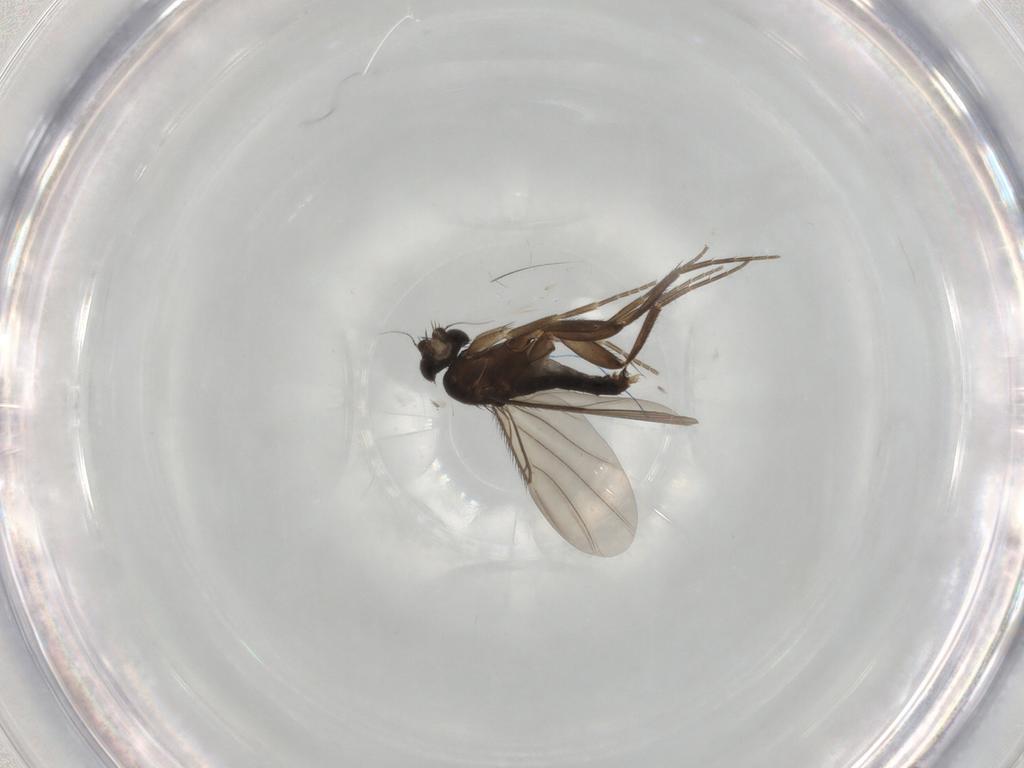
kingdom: Animalia
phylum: Arthropoda
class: Insecta
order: Diptera
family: Phoridae
